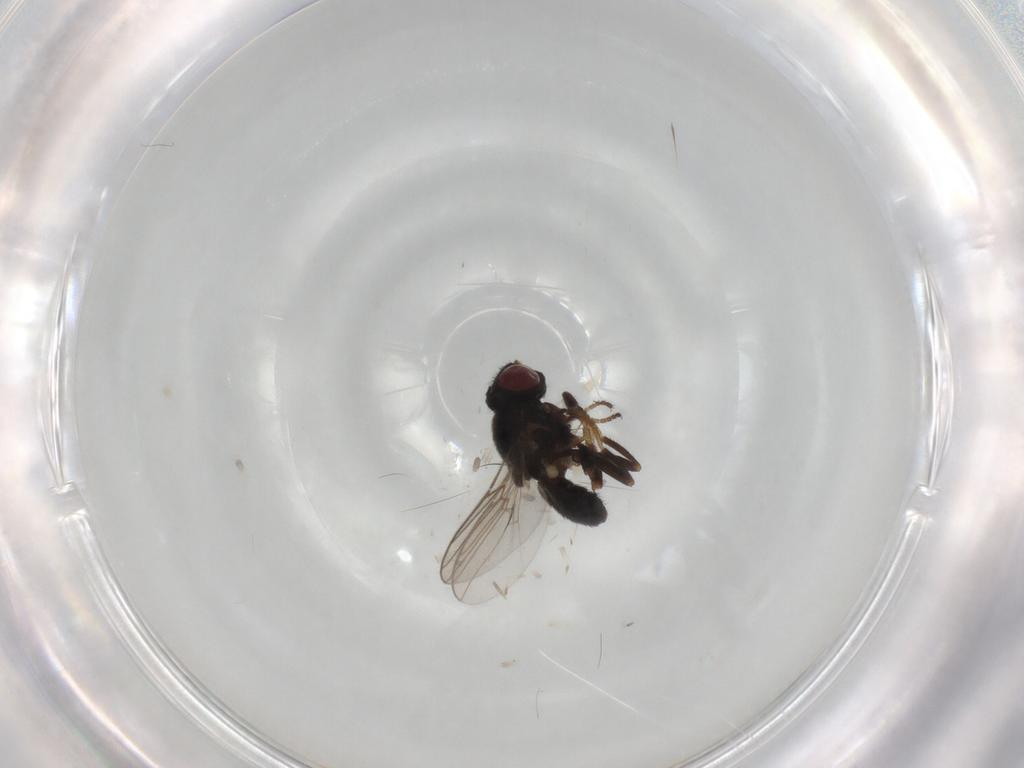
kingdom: Animalia
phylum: Arthropoda
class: Insecta
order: Diptera
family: Chloropidae
